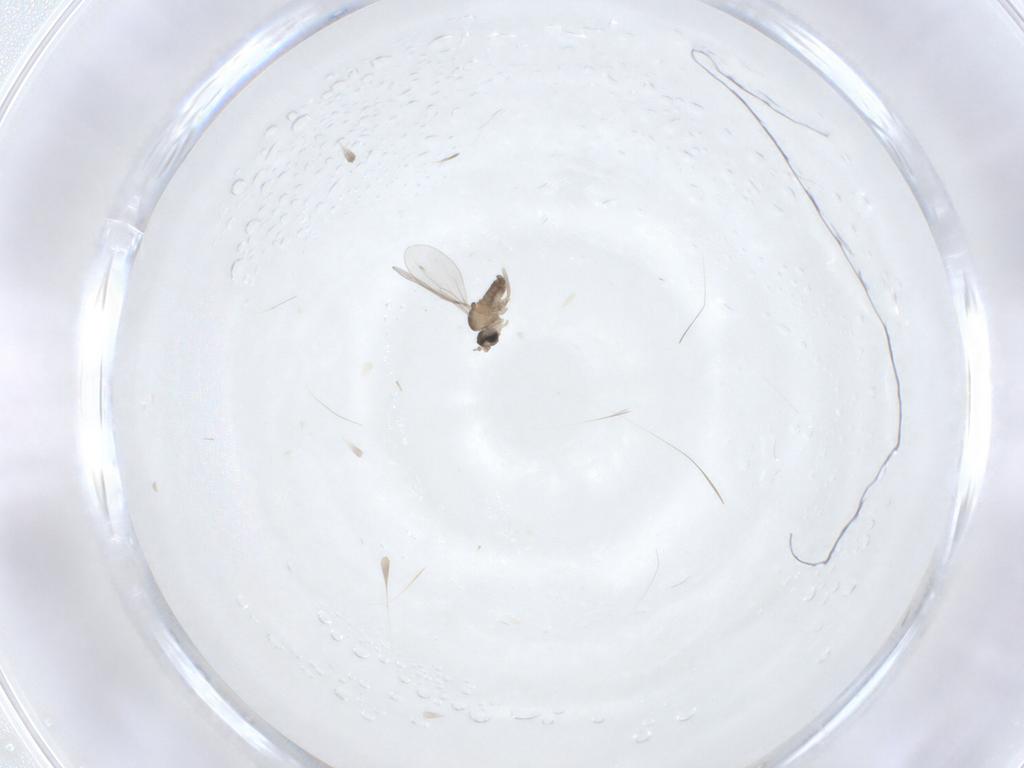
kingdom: Animalia
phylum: Arthropoda
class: Insecta
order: Diptera
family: Cecidomyiidae
